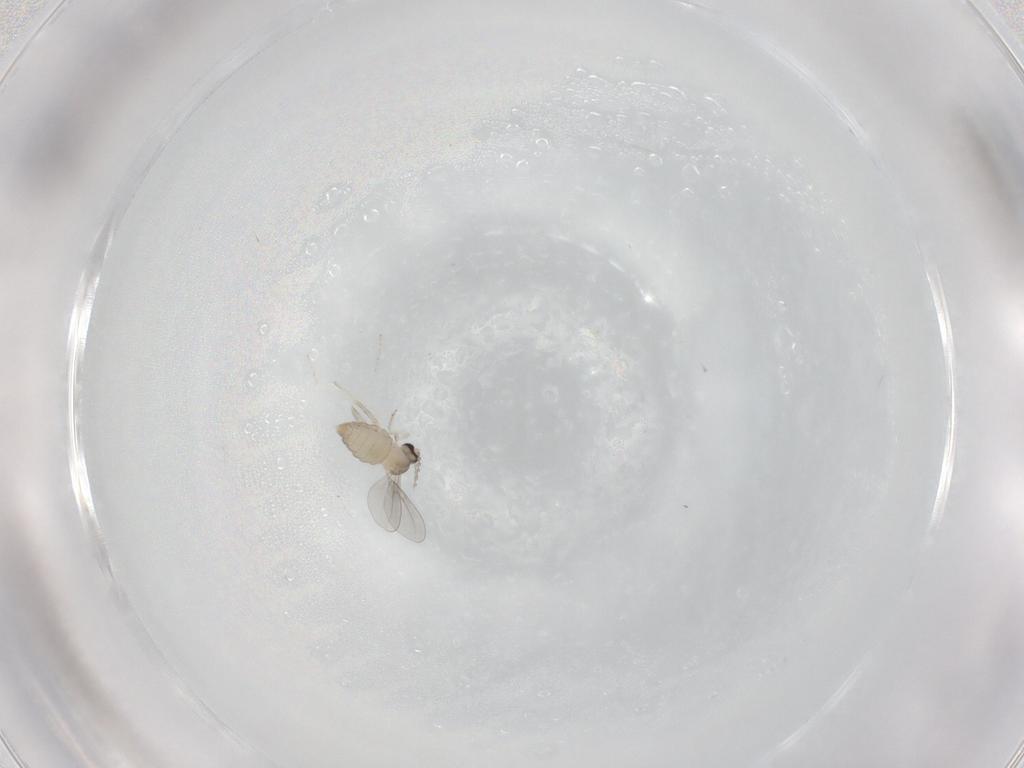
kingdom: Animalia
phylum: Arthropoda
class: Insecta
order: Diptera
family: Cecidomyiidae
